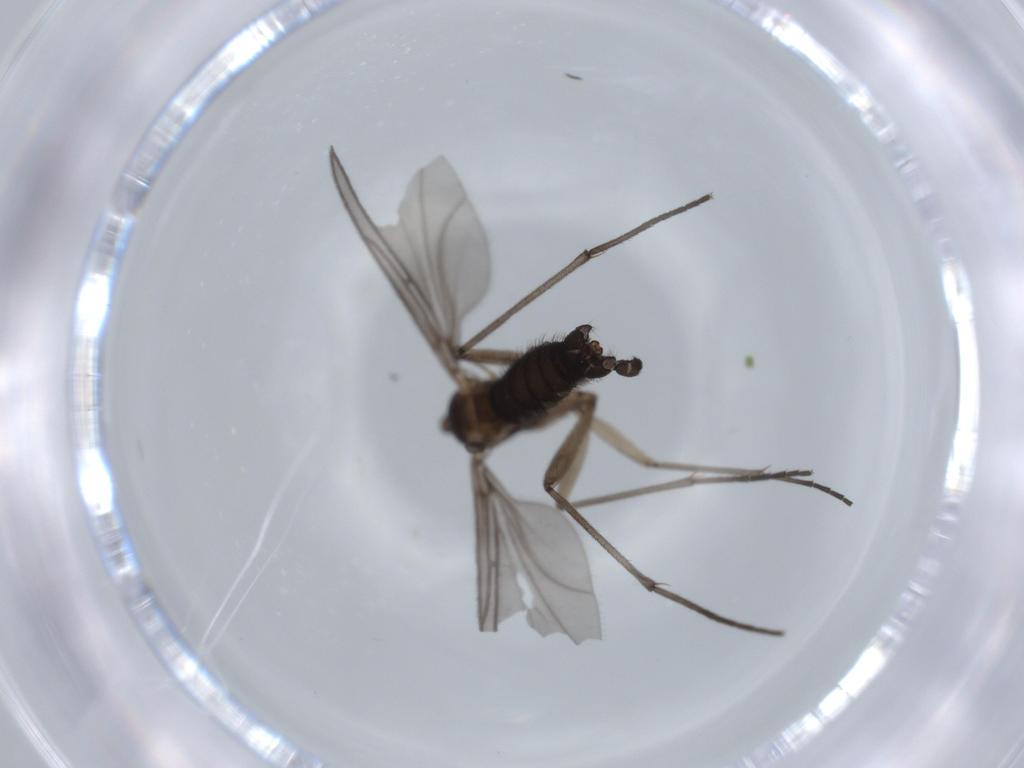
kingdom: Animalia
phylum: Arthropoda
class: Insecta
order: Diptera
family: Sciaridae
